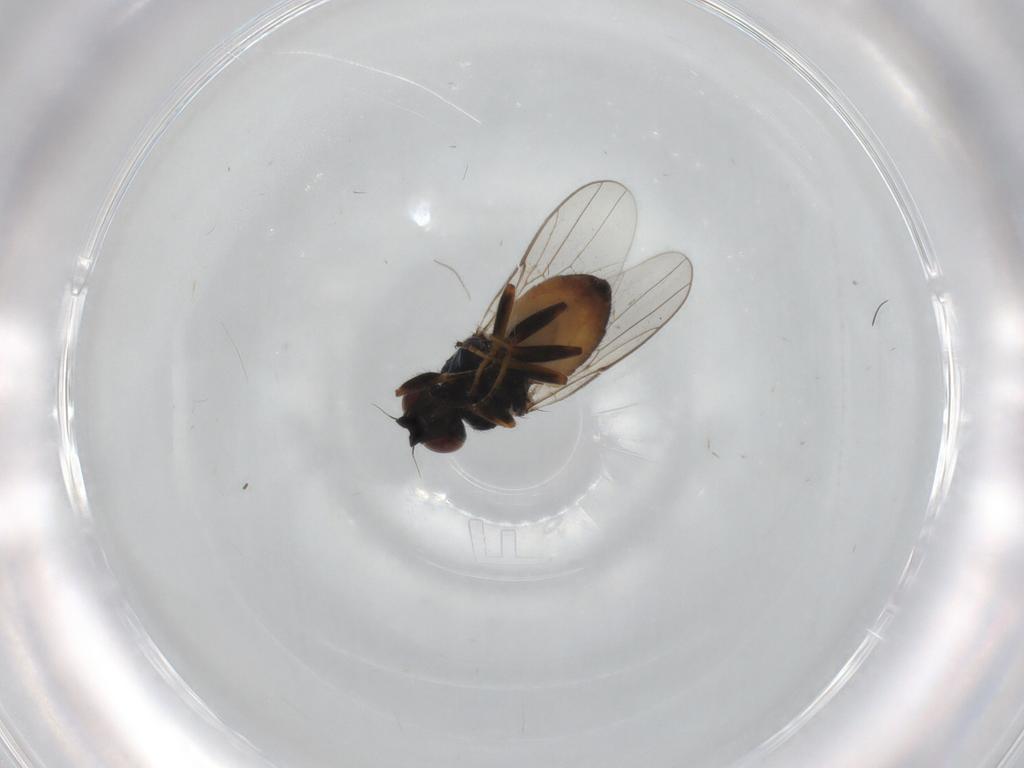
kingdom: Animalia
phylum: Arthropoda
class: Insecta
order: Diptera
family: Chloropidae
